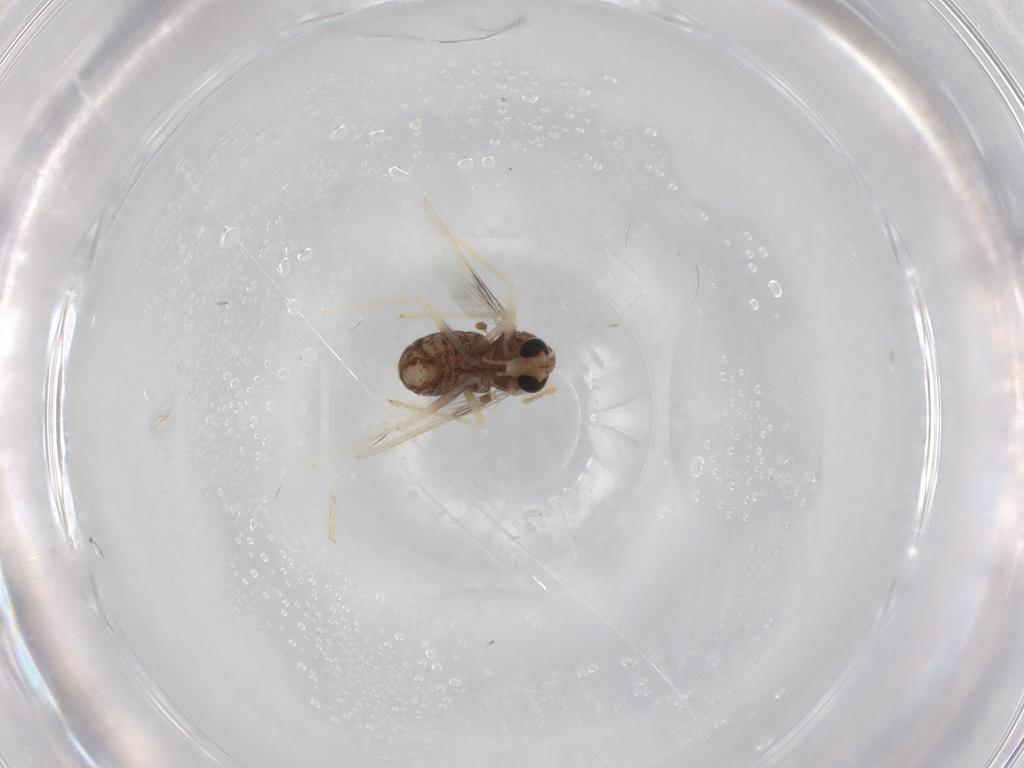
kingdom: Animalia
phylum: Arthropoda
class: Insecta
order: Diptera
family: Chironomidae
